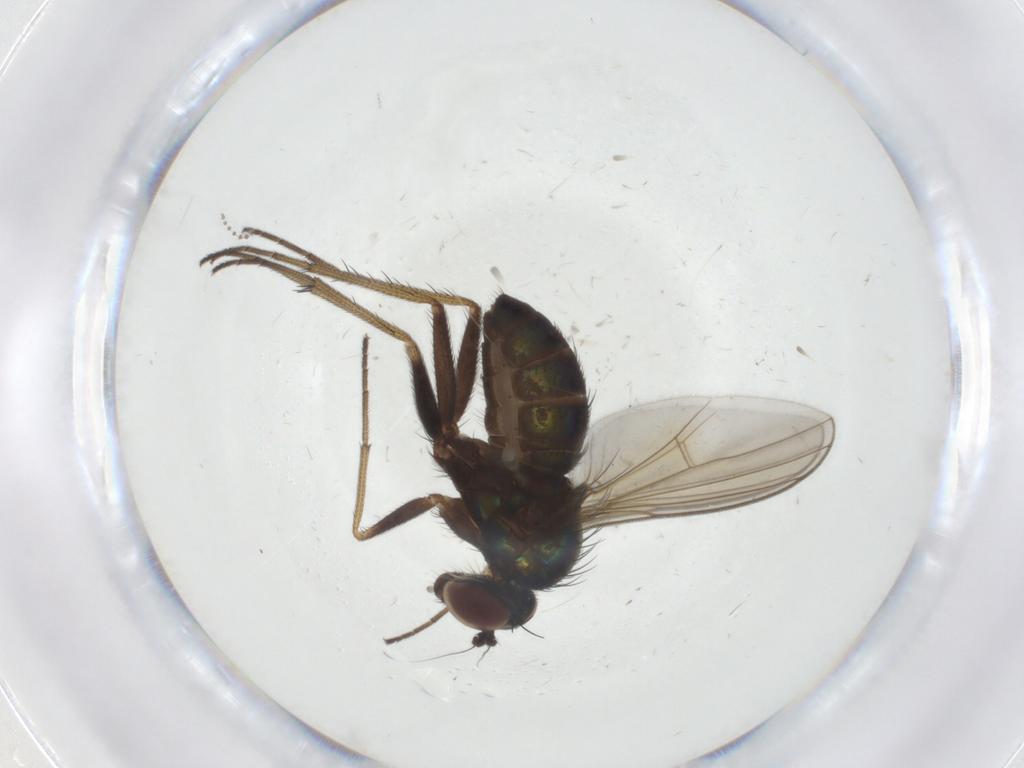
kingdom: Animalia
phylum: Arthropoda
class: Insecta
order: Diptera
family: Dolichopodidae
